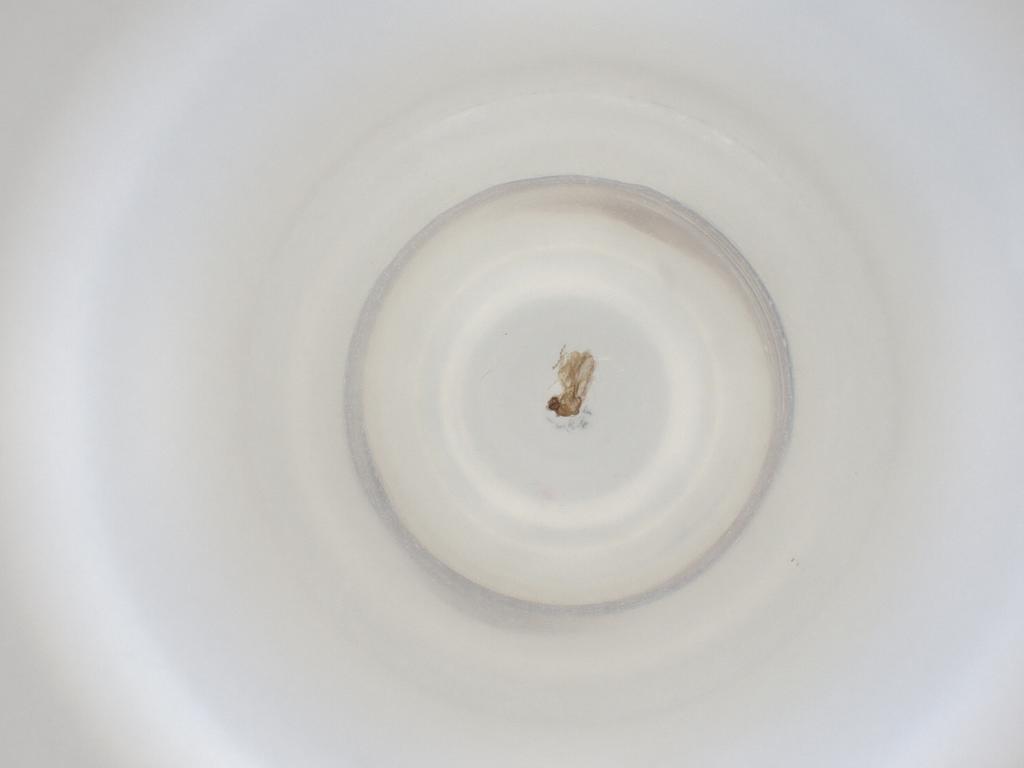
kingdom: Animalia
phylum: Arthropoda
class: Insecta
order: Diptera
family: Cecidomyiidae
